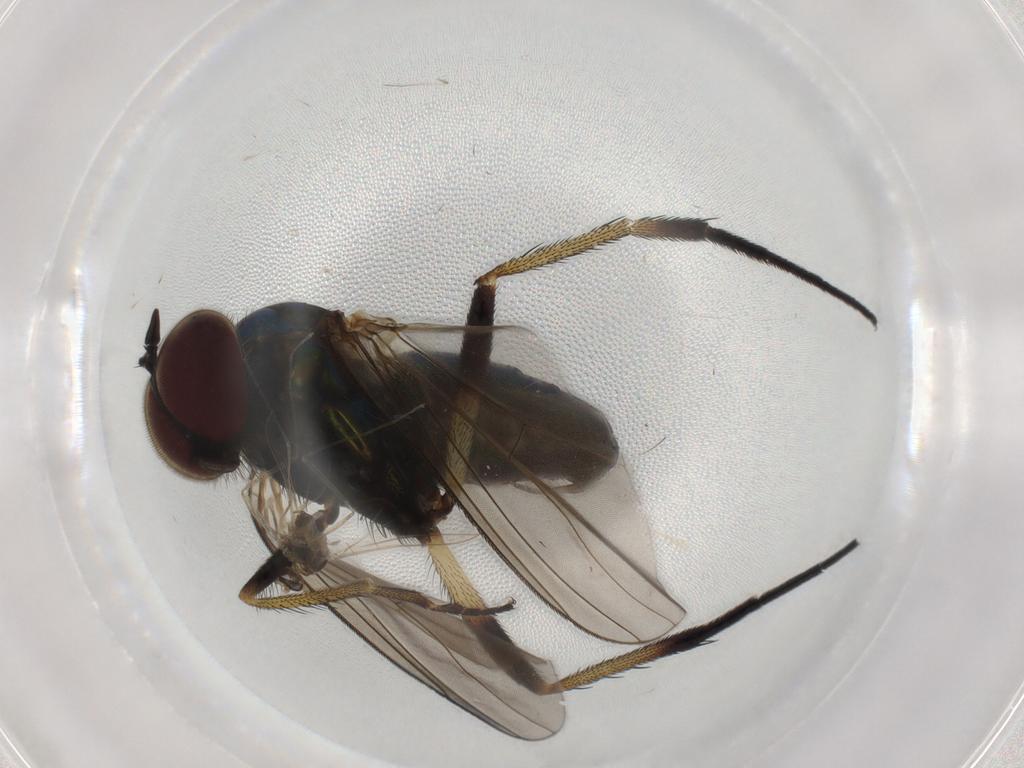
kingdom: Animalia
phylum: Arthropoda
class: Insecta
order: Diptera
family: Dolichopodidae
